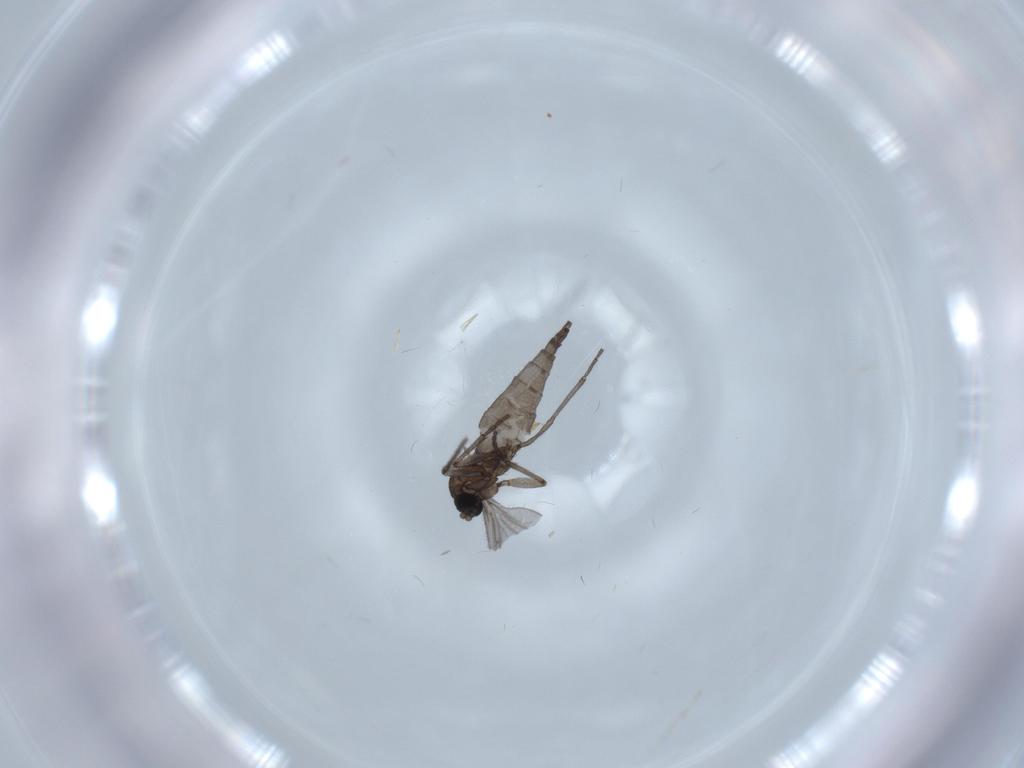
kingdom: Animalia
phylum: Arthropoda
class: Insecta
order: Diptera
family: Sciaridae
